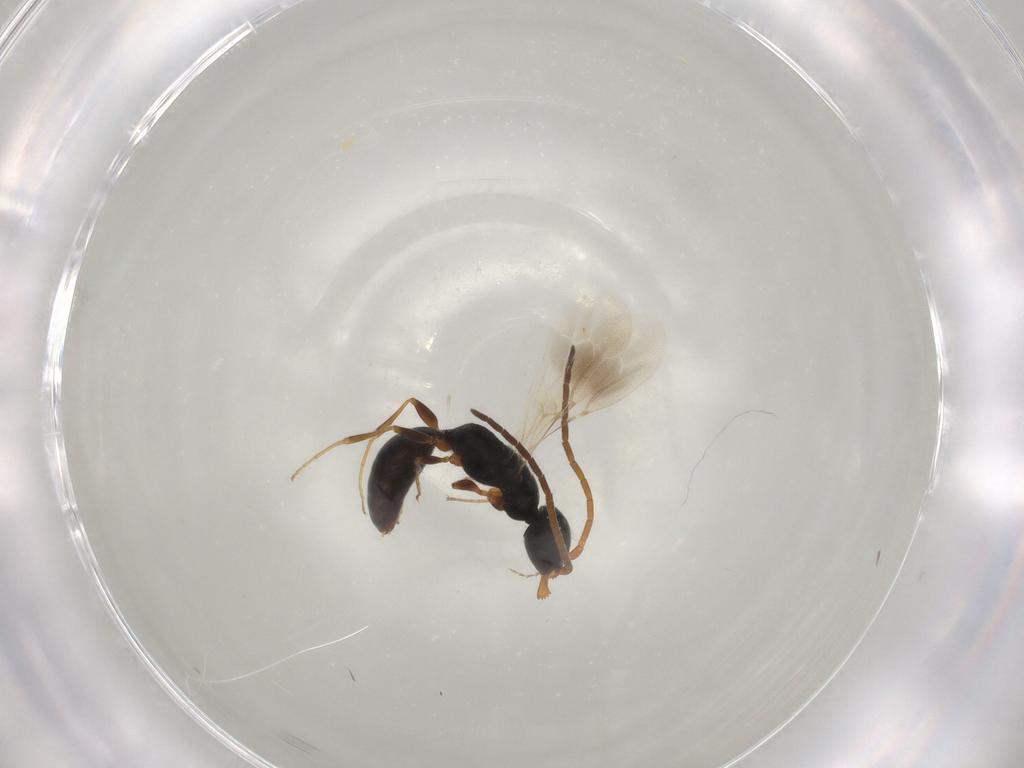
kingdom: Animalia
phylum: Arthropoda
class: Insecta
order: Hymenoptera
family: Bethylidae
